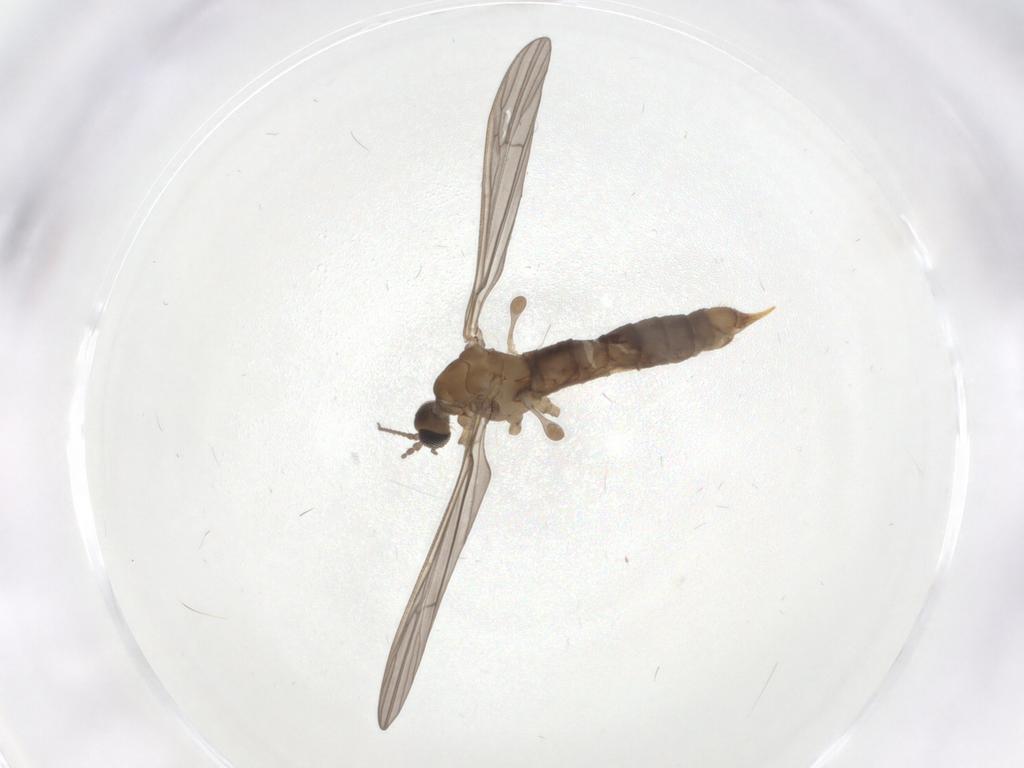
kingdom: Animalia
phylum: Arthropoda
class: Insecta
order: Diptera
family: Limoniidae
